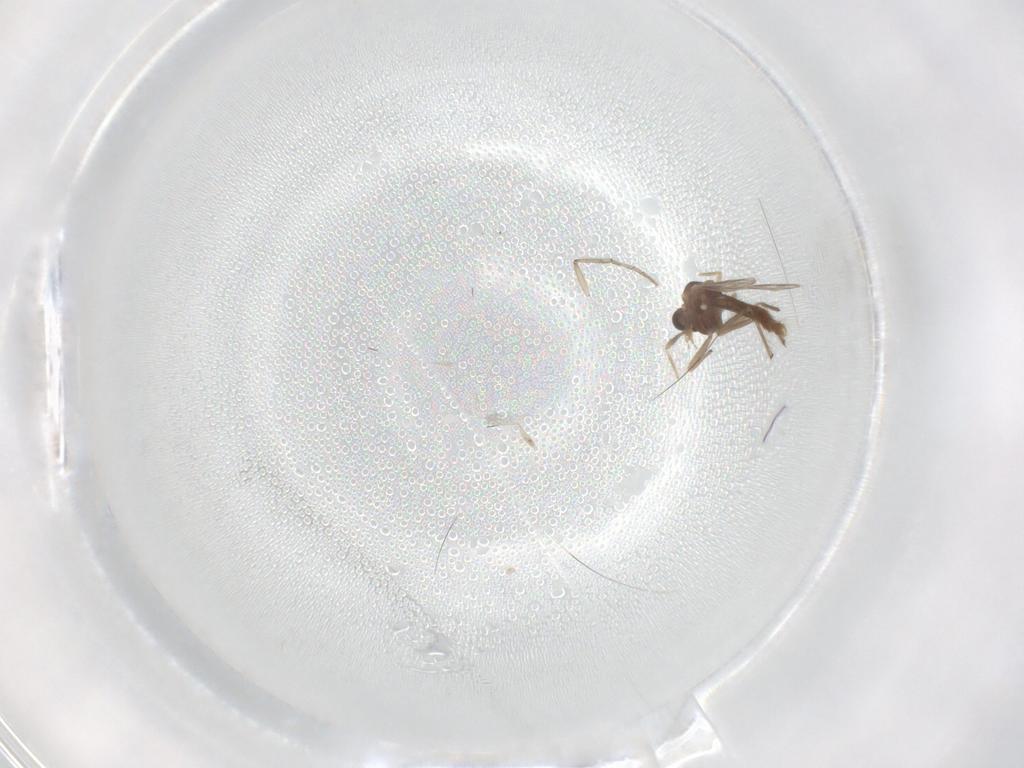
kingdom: Animalia
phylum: Arthropoda
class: Insecta
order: Diptera
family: Chironomidae
